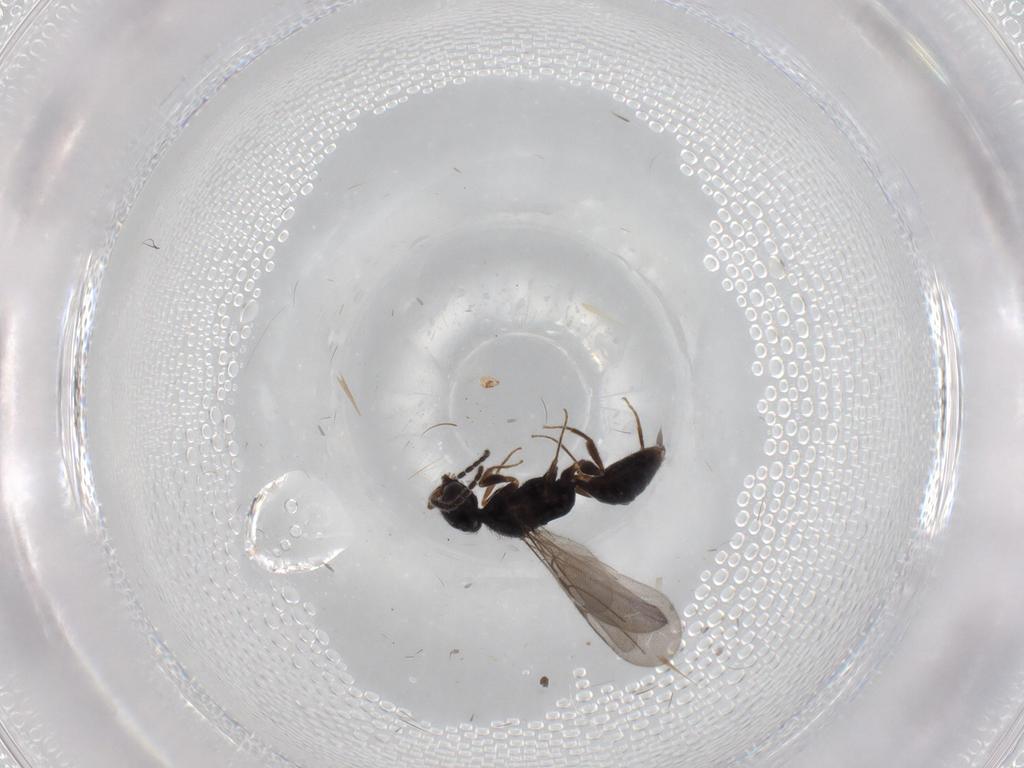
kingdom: Animalia
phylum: Arthropoda
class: Insecta
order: Hymenoptera
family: Bethylidae
